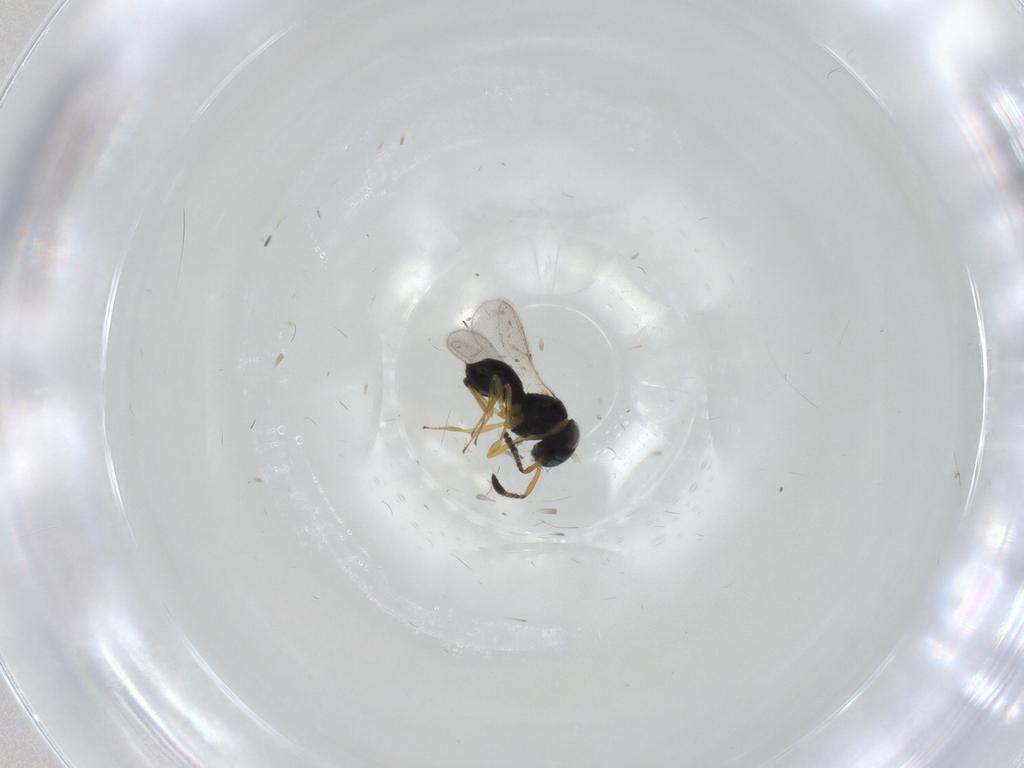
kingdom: Animalia
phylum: Arthropoda
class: Insecta
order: Hymenoptera
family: Scelionidae
